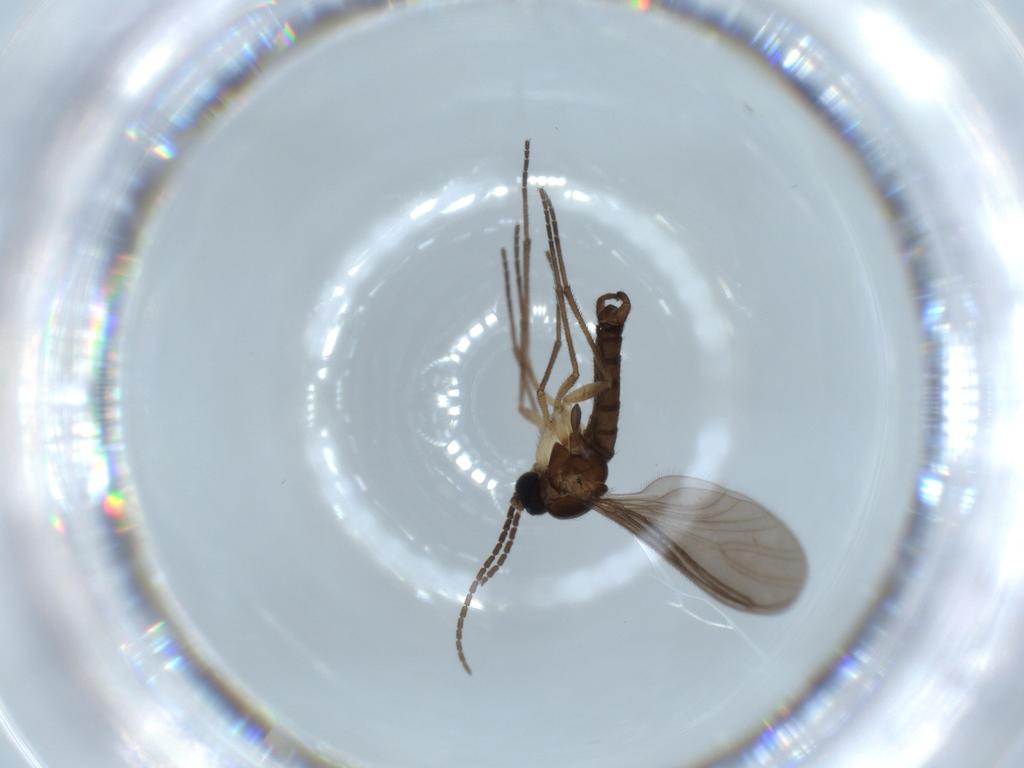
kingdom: Animalia
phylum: Arthropoda
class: Insecta
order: Diptera
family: Sciaridae
